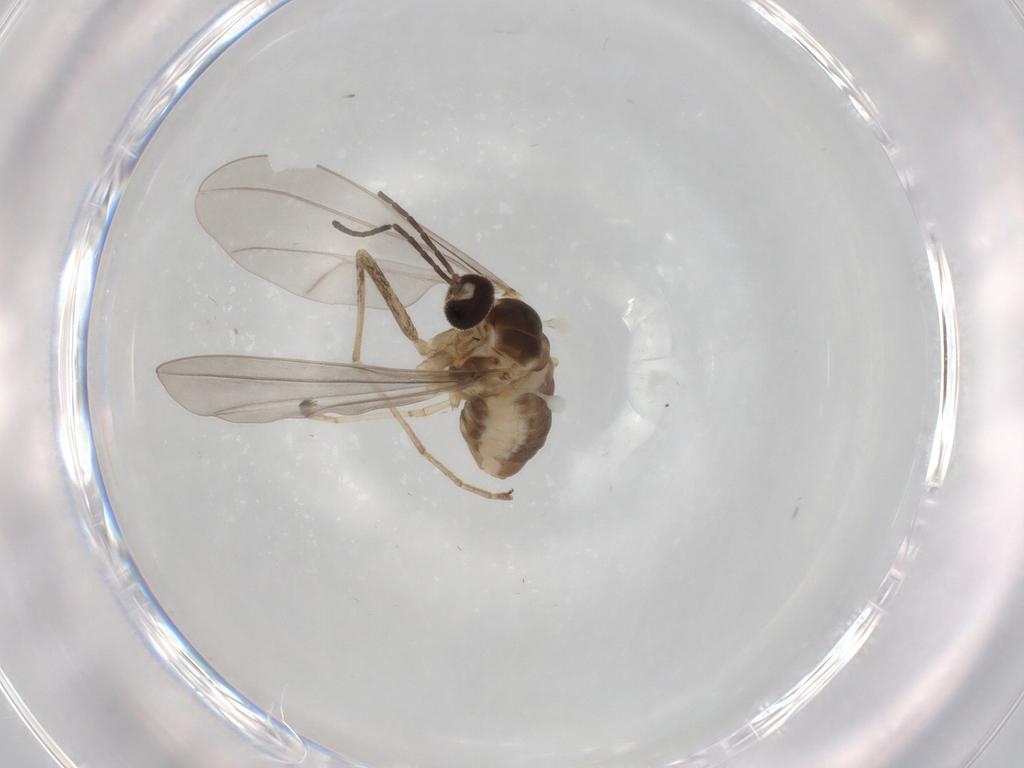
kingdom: Animalia
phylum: Arthropoda
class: Insecta
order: Diptera
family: Cecidomyiidae
